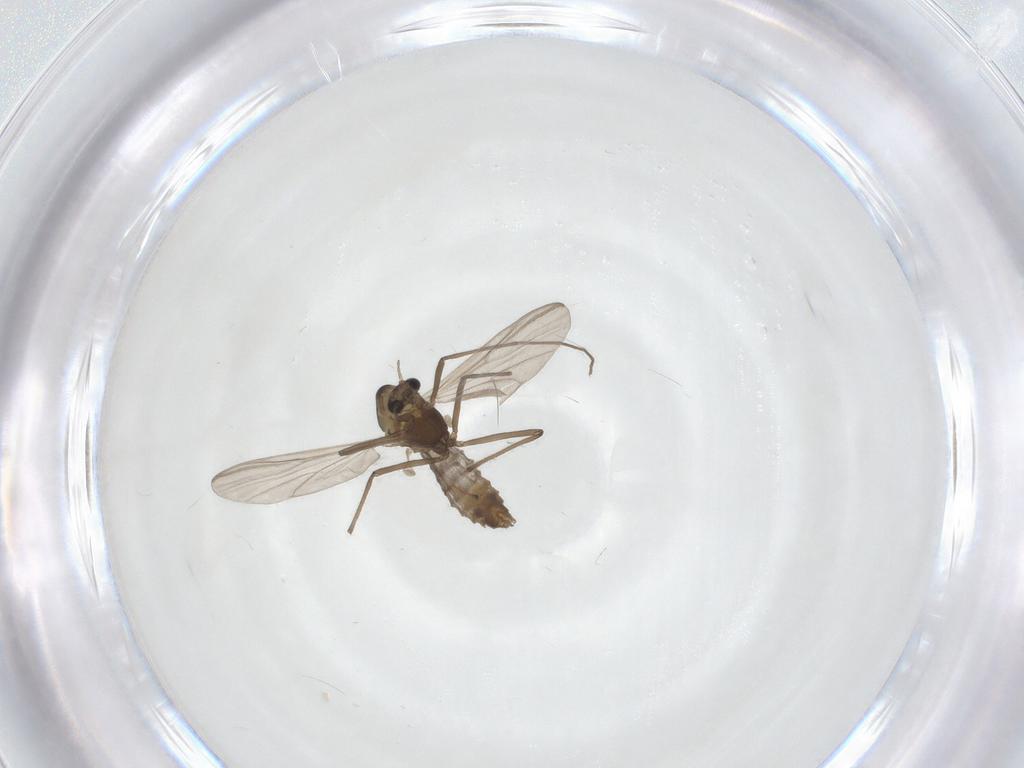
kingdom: Animalia
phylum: Arthropoda
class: Insecta
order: Diptera
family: Chironomidae
